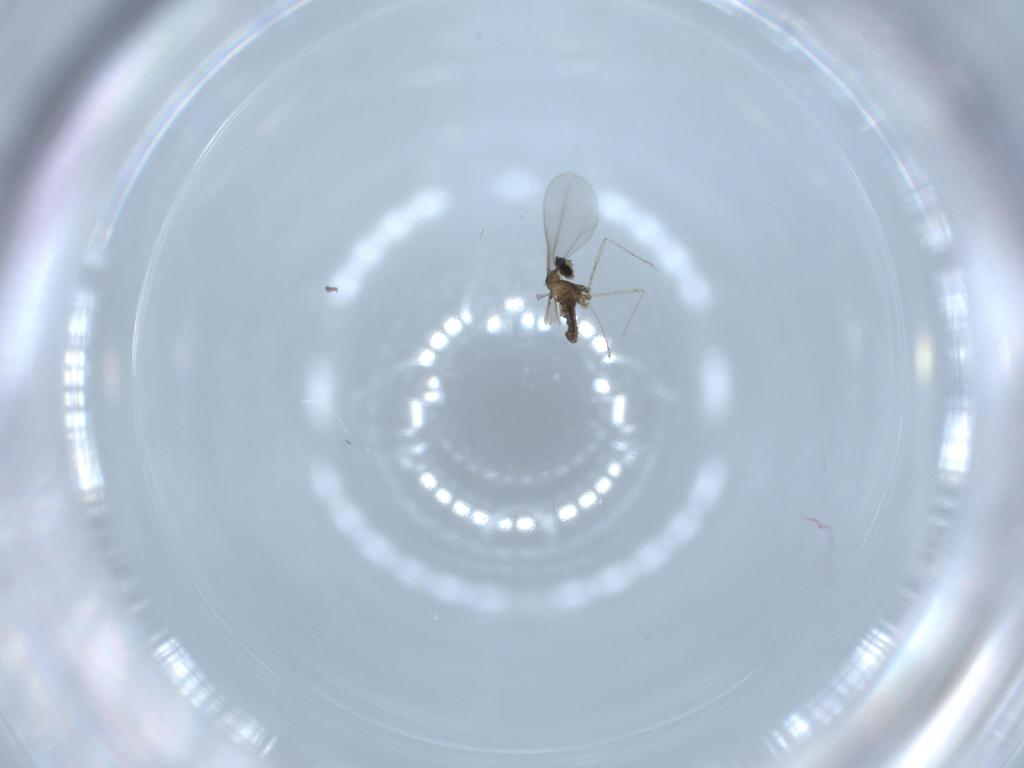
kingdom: Animalia
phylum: Arthropoda
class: Insecta
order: Diptera
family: Cecidomyiidae
